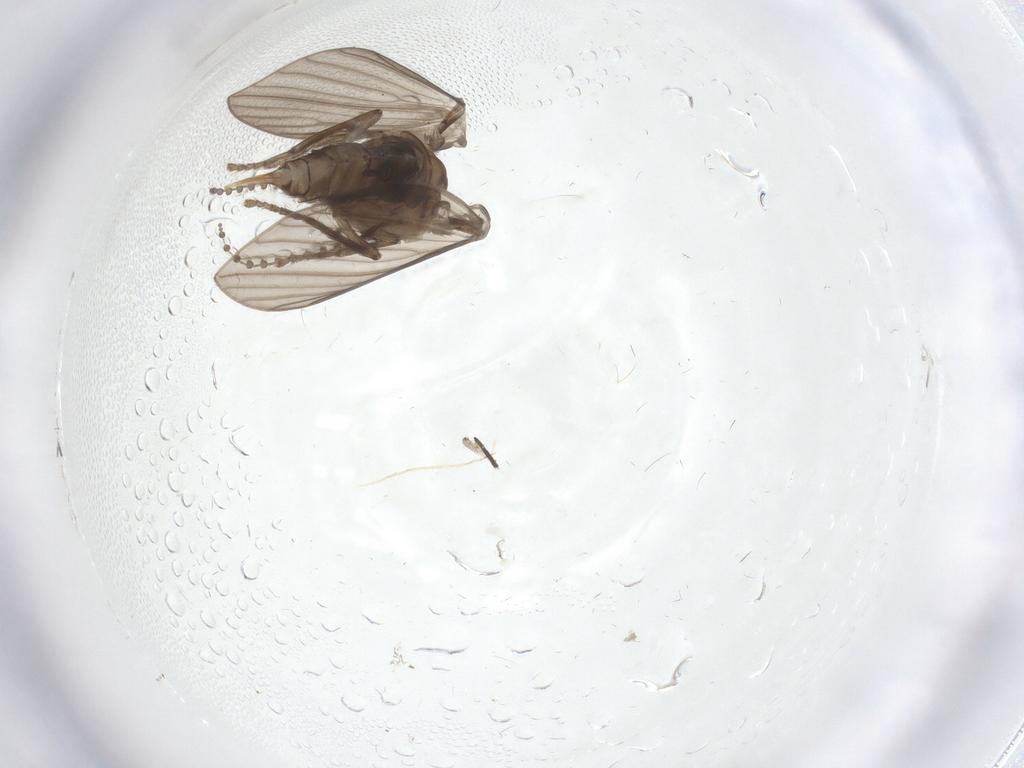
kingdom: Animalia
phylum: Arthropoda
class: Insecta
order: Diptera
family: Psychodidae
